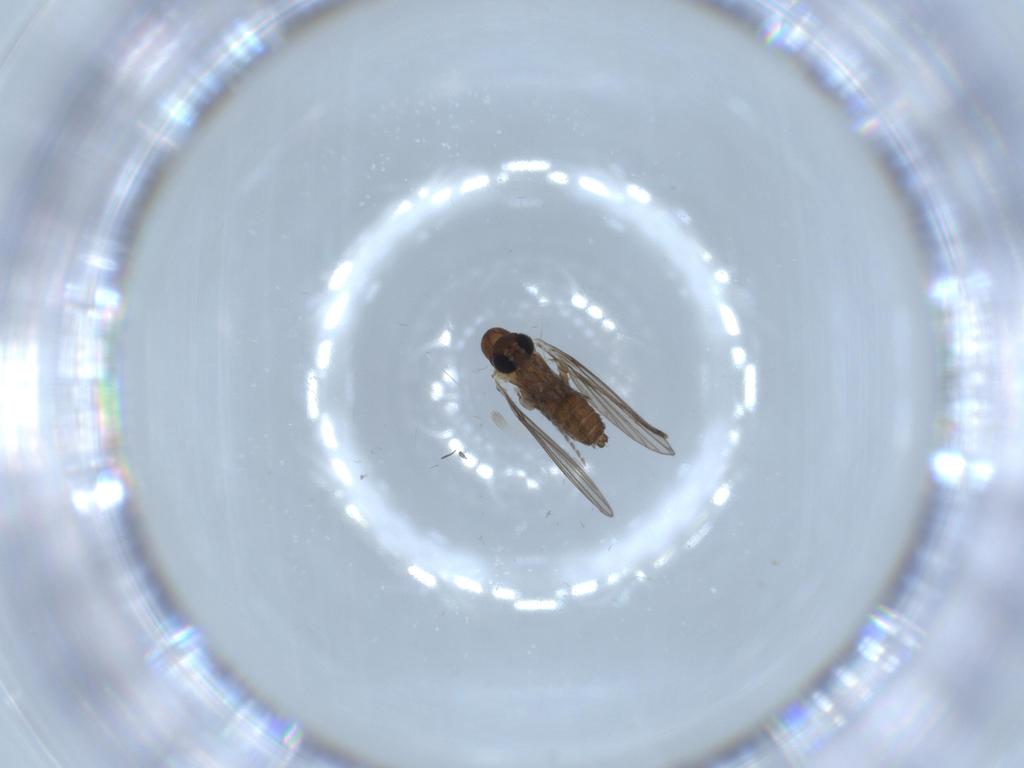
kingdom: Animalia
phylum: Arthropoda
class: Insecta
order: Diptera
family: Psychodidae
